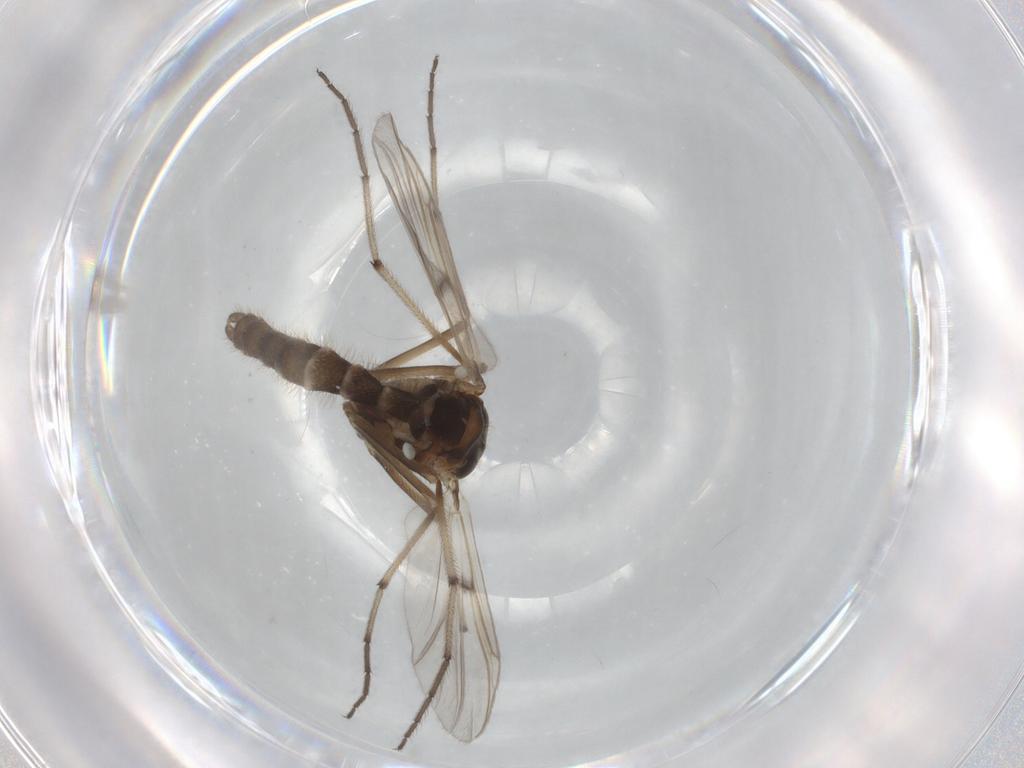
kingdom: Animalia
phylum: Arthropoda
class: Insecta
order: Diptera
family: Chironomidae
